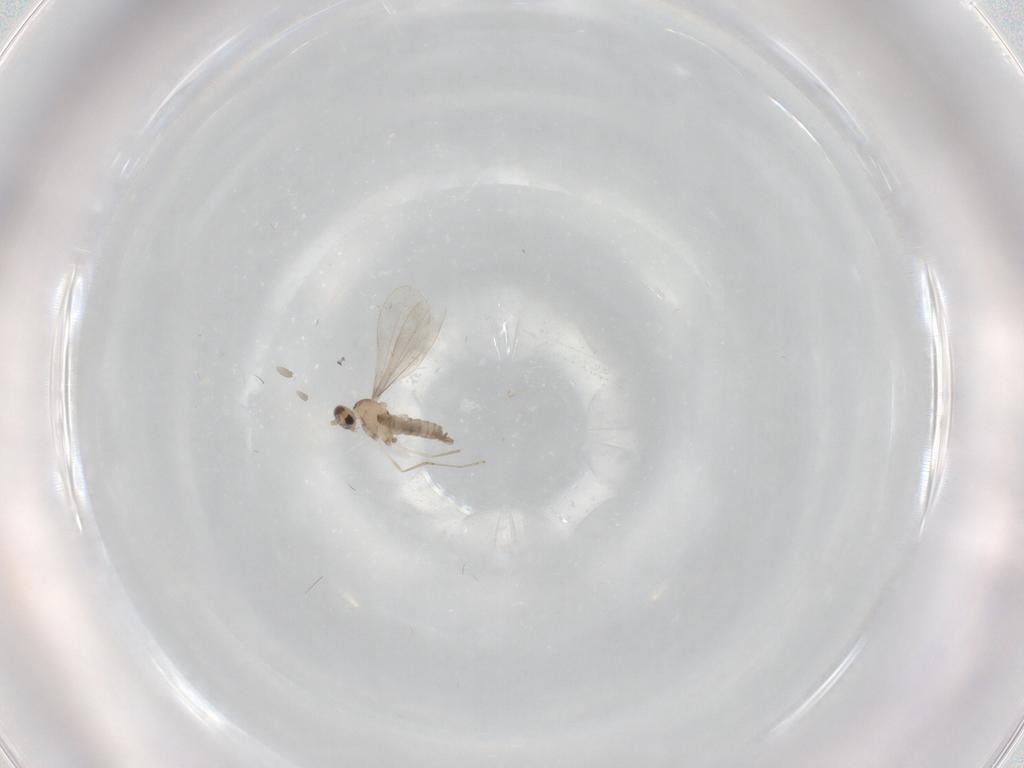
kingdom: Animalia
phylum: Arthropoda
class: Insecta
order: Diptera
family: Cecidomyiidae
